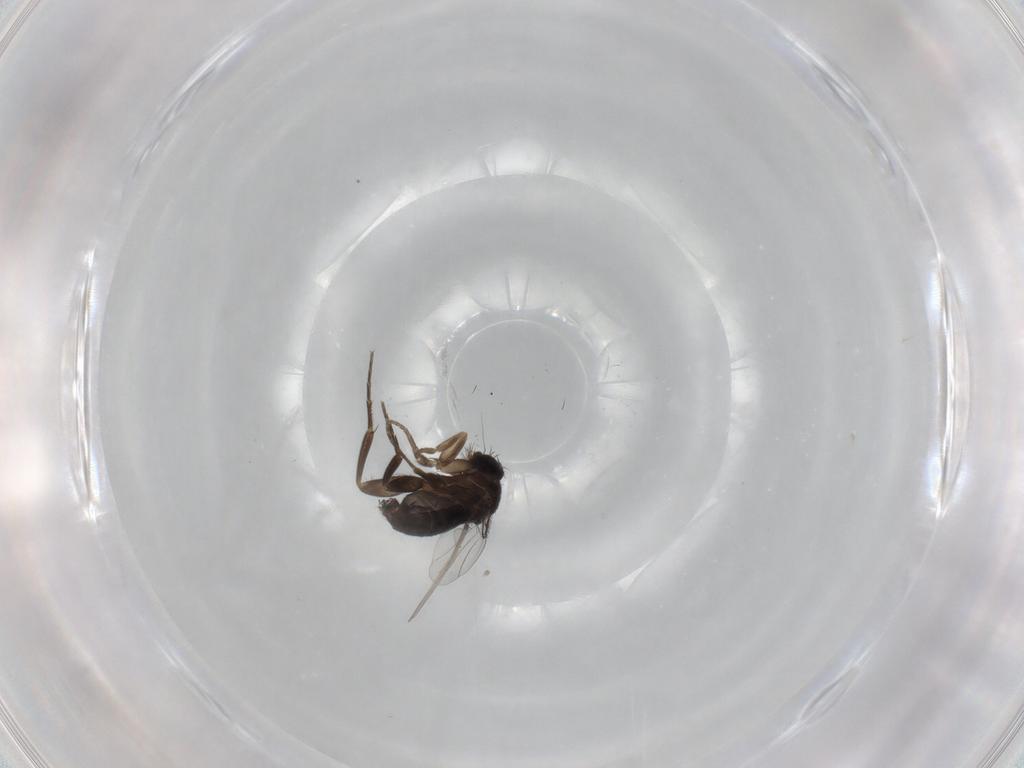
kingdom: Animalia
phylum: Arthropoda
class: Insecta
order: Diptera
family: Phoridae
